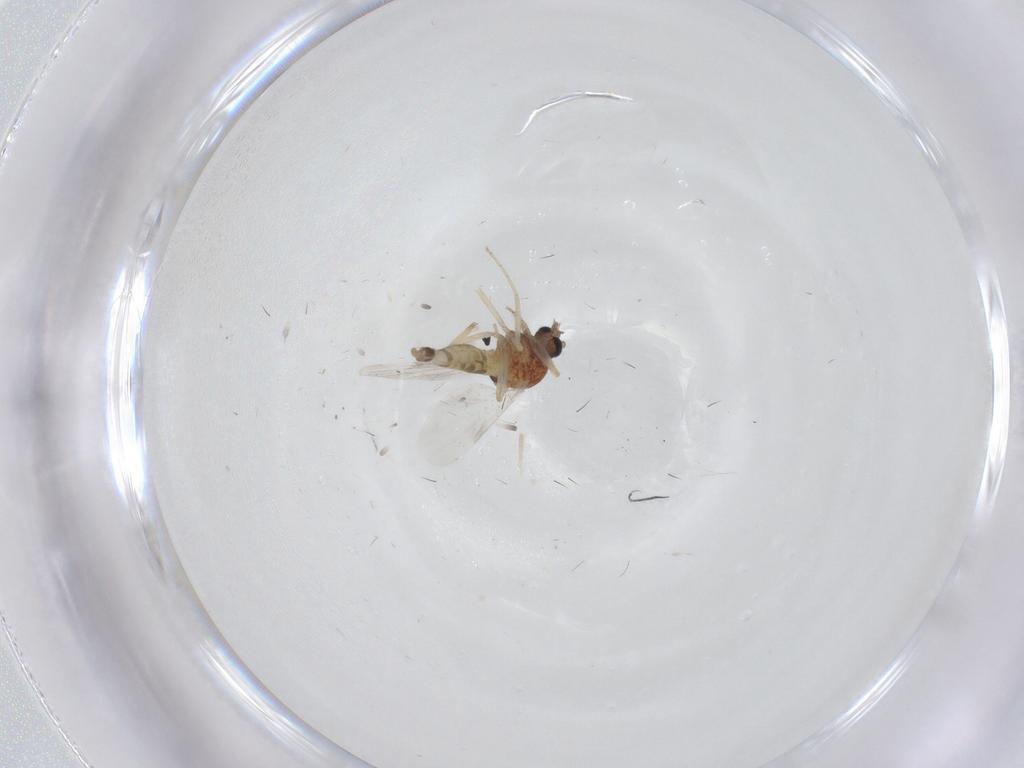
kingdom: Animalia
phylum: Arthropoda
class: Insecta
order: Diptera
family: Ceratopogonidae
